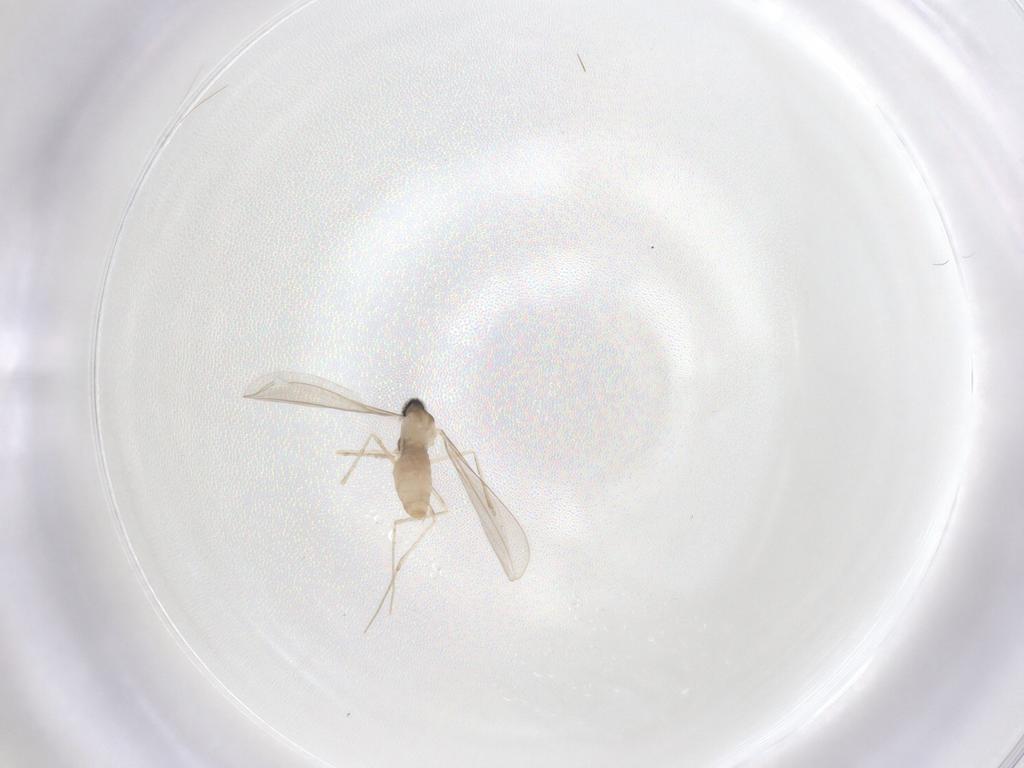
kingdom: Animalia
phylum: Arthropoda
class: Insecta
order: Diptera
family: Cecidomyiidae
